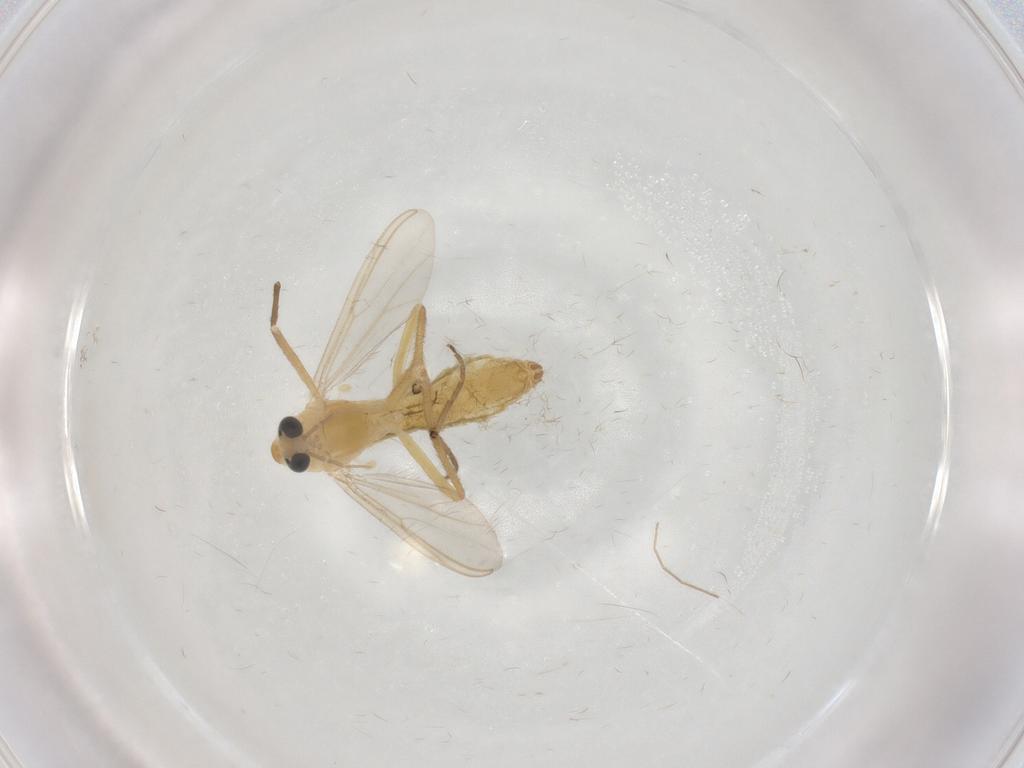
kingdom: Animalia
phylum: Arthropoda
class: Insecta
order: Diptera
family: Chironomidae
